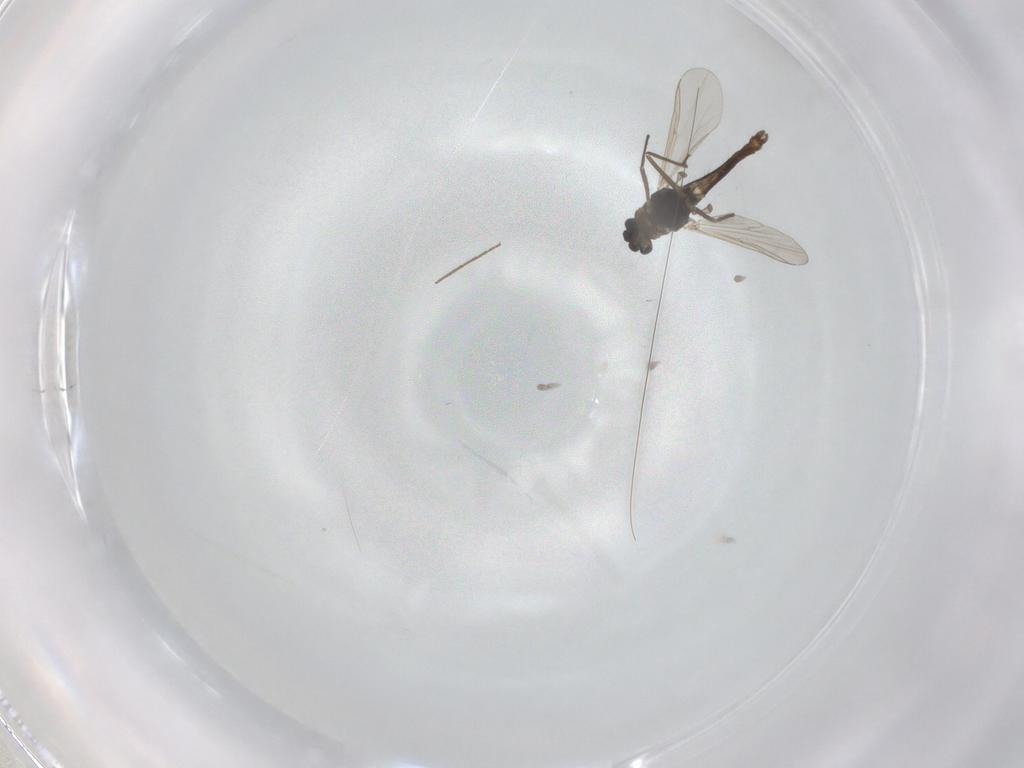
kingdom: Animalia
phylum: Arthropoda
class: Insecta
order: Diptera
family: Chironomidae
